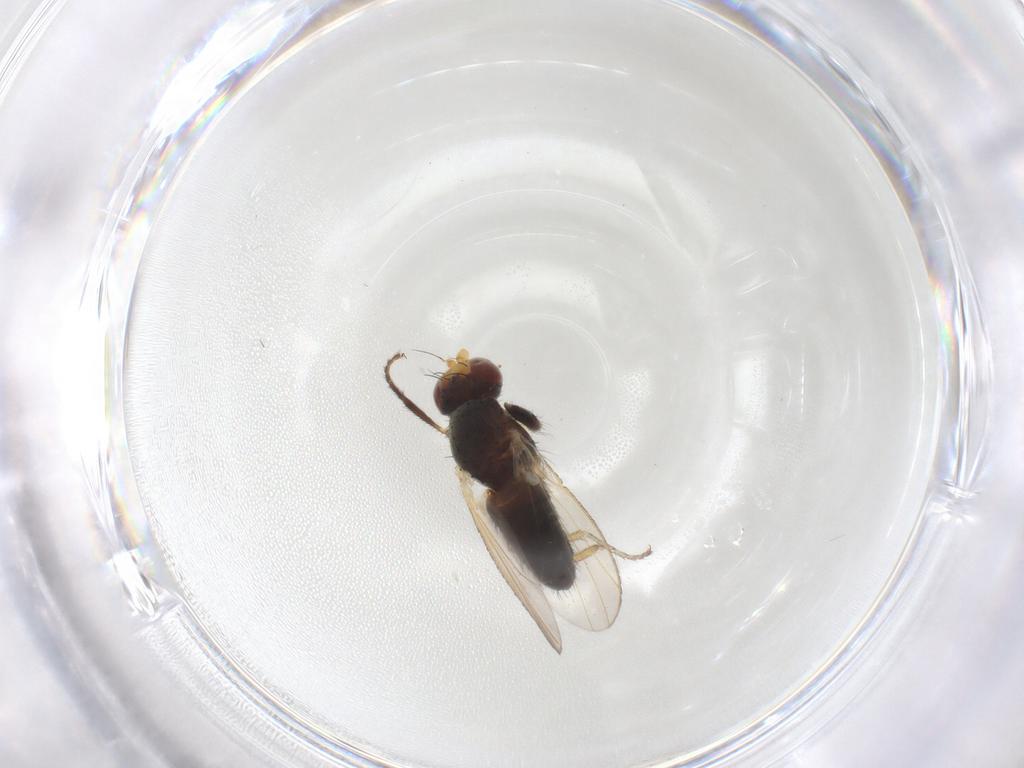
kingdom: Animalia
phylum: Arthropoda
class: Insecta
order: Diptera
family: Heleomyzidae
